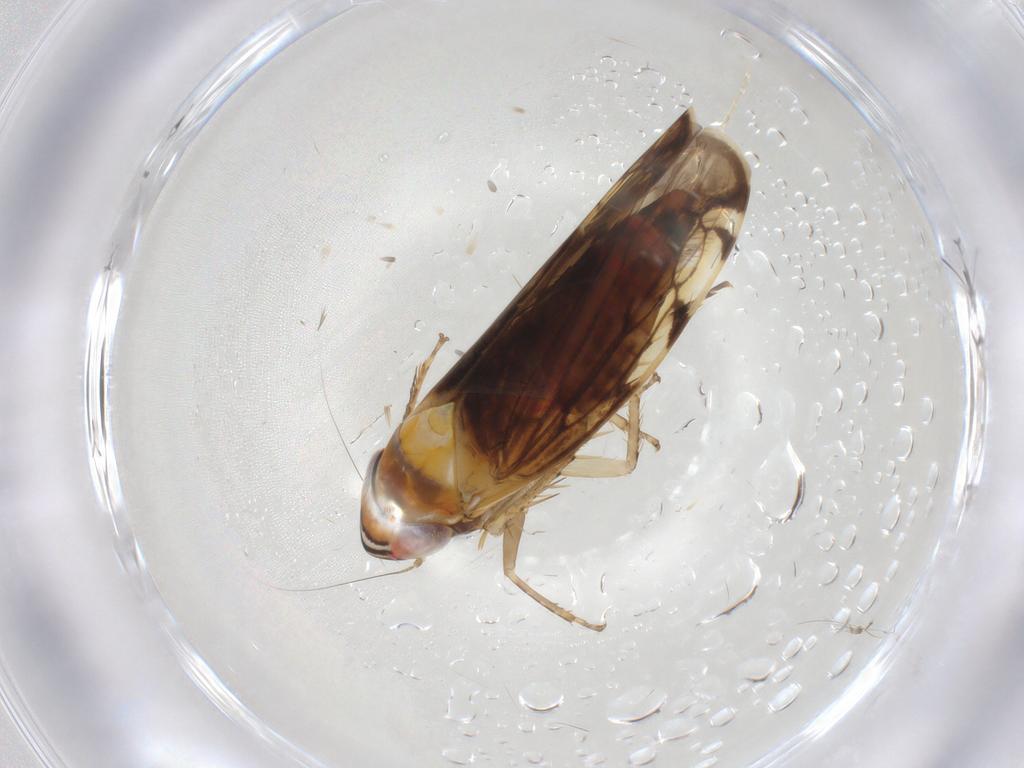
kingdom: Animalia
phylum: Arthropoda
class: Insecta
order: Hemiptera
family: Cicadellidae
